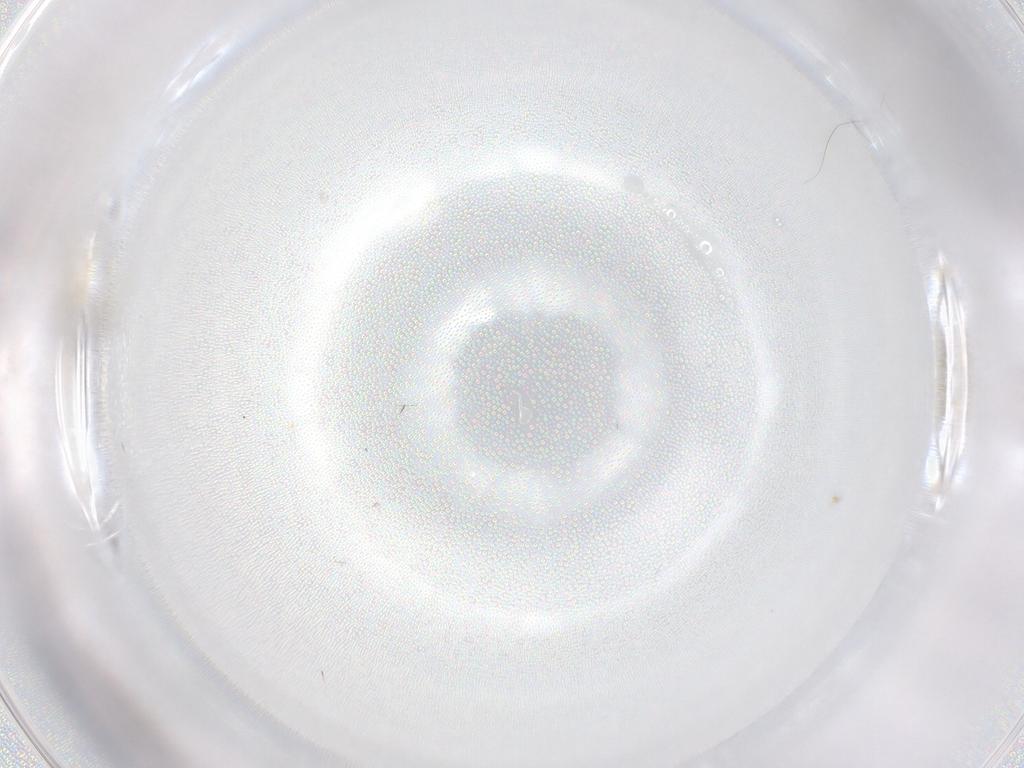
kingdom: Animalia
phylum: Arthropoda
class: Insecta
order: Diptera
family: Cecidomyiidae
